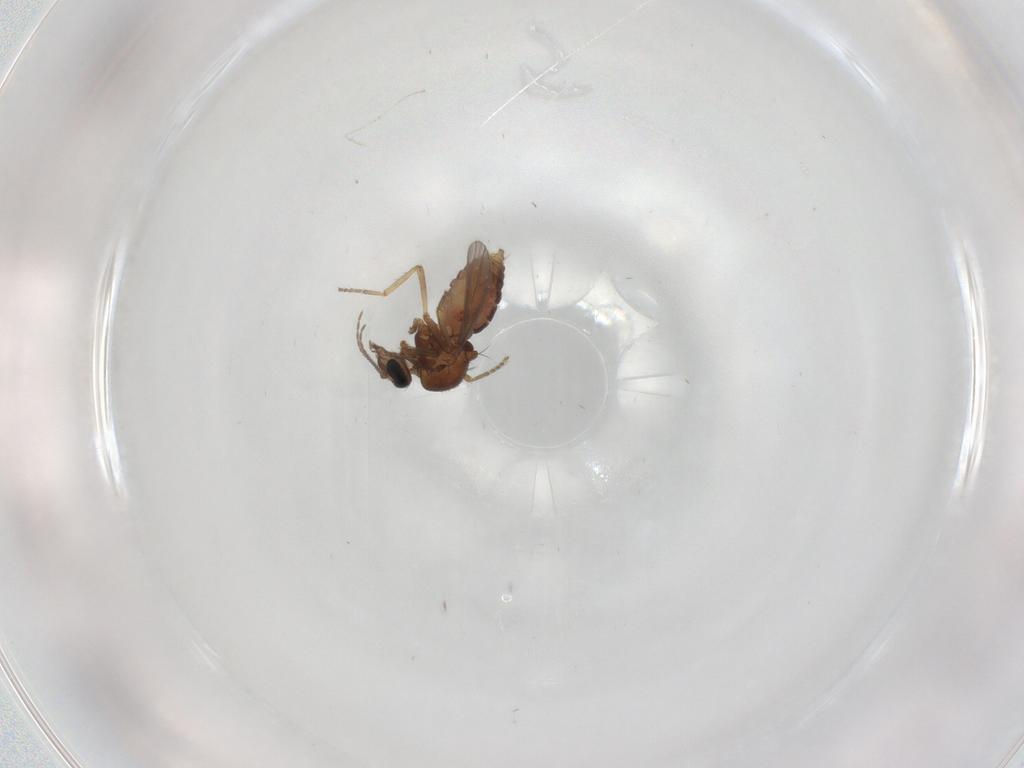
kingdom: Animalia
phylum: Arthropoda
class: Insecta
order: Diptera
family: Ceratopogonidae
